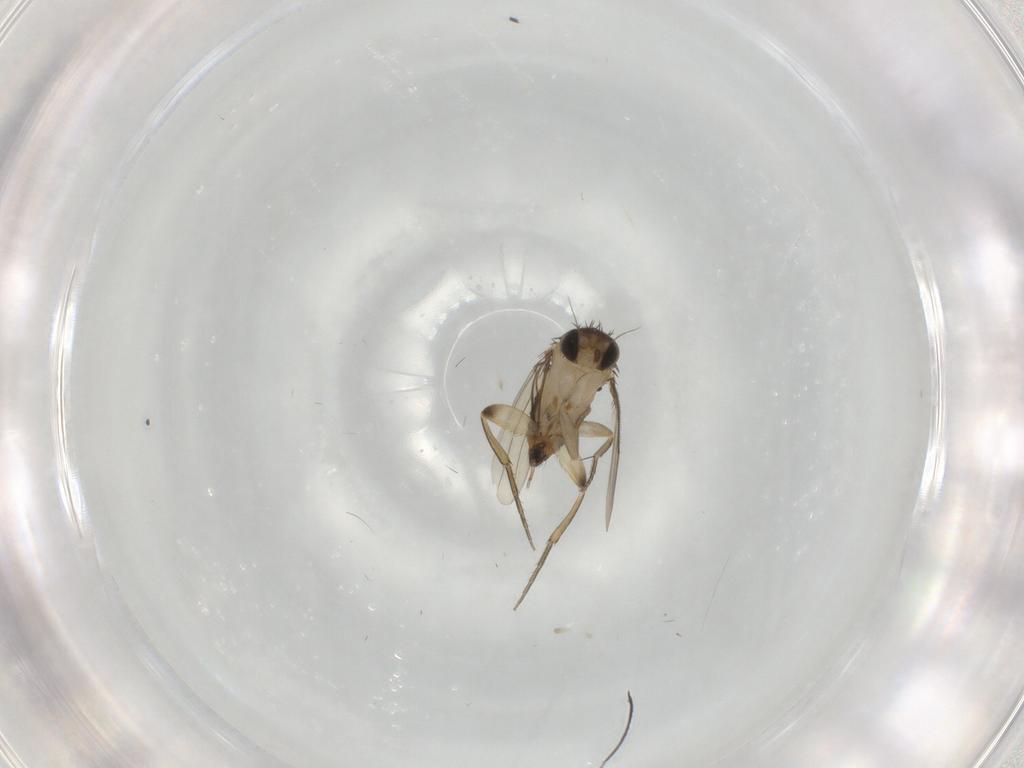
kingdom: Animalia
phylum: Arthropoda
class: Insecta
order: Diptera
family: Phoridae
